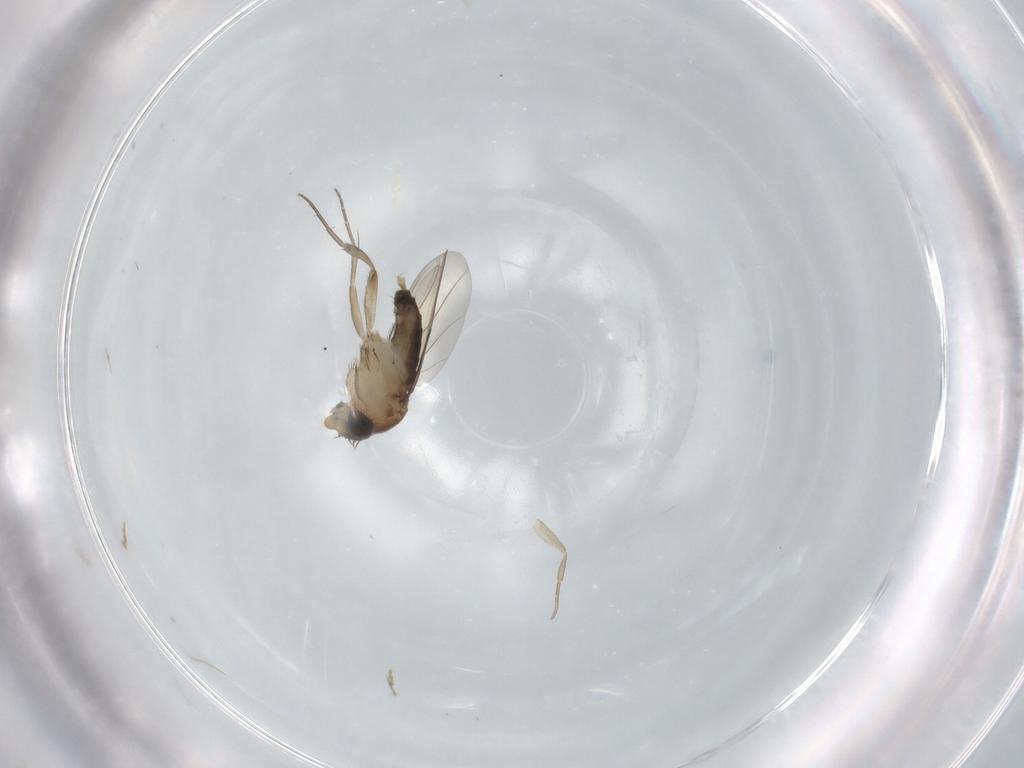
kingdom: Animalia
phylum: Arthropoda
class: Insecta
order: Diptera
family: Phoridae
